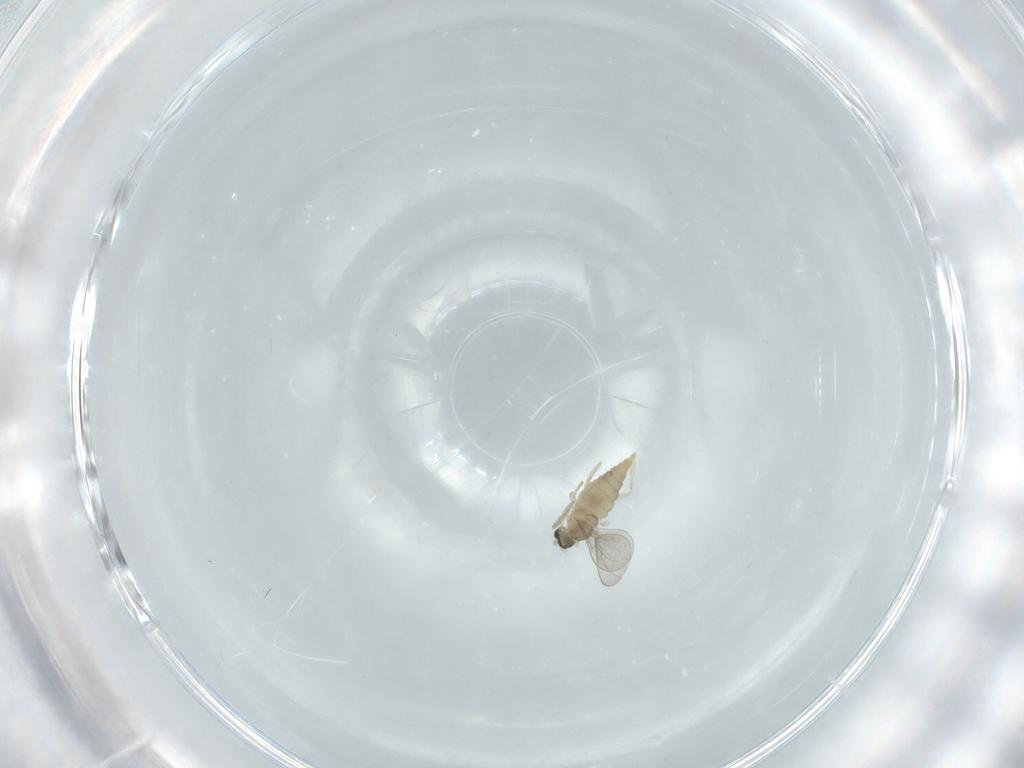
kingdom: Animalia
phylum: Arthropoda
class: Insecta
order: Diptera
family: Cecidomyiidae
